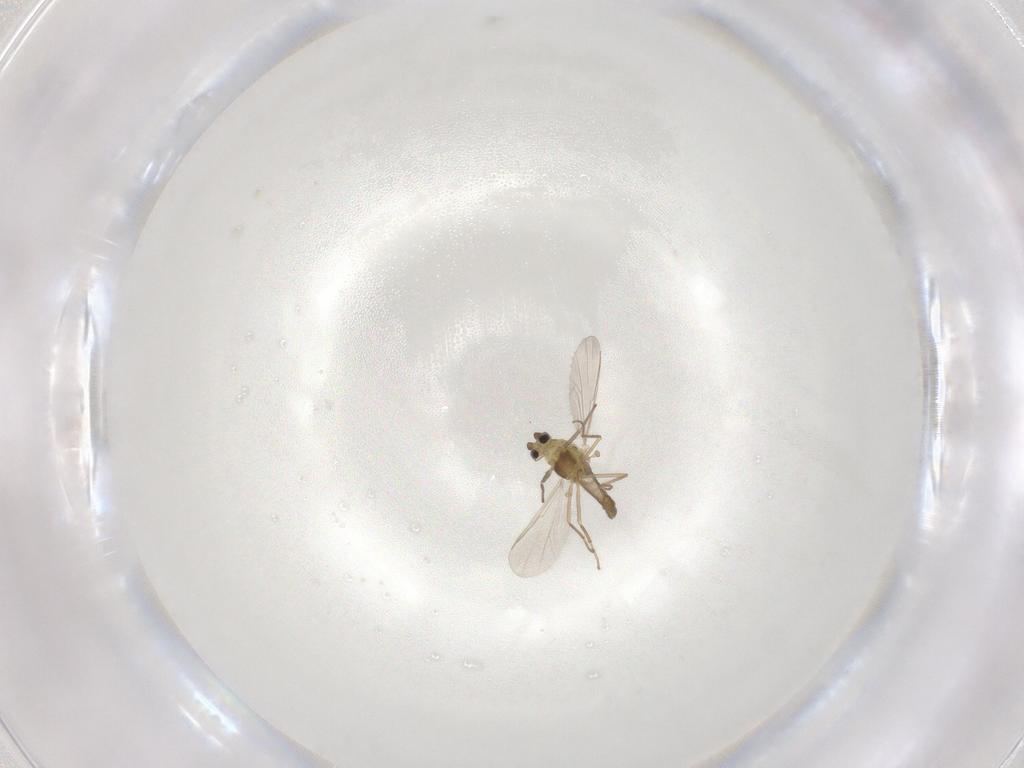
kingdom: Animalia
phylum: Arthropoda
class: Insecta
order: Diptera
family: Chironomidae
